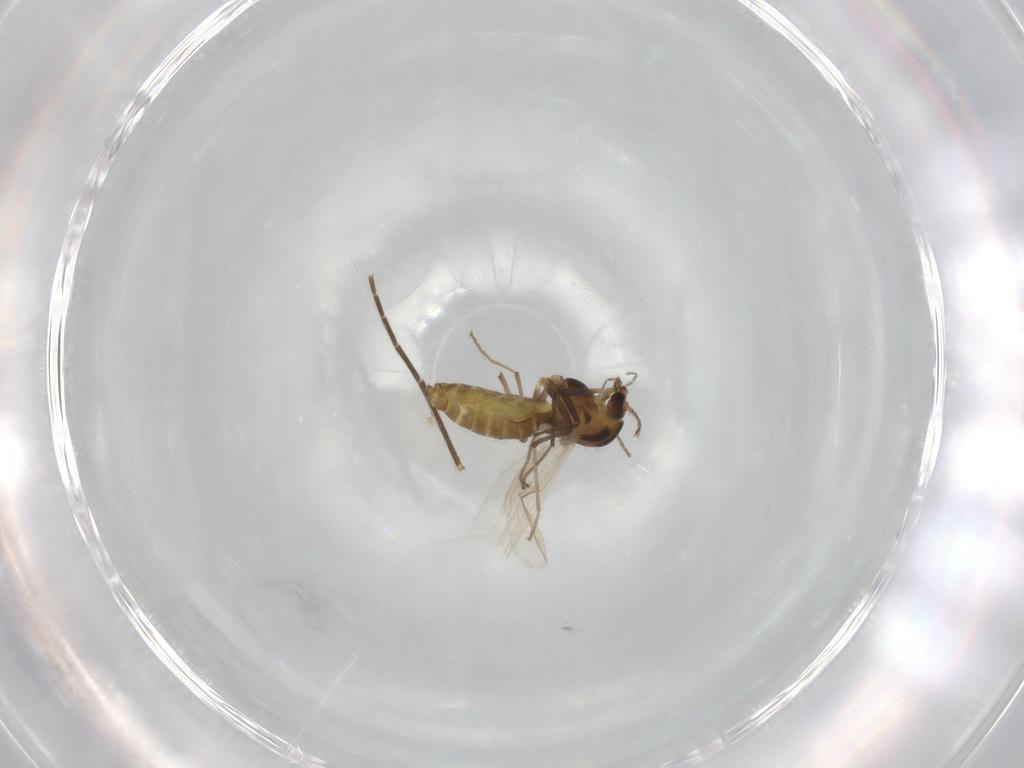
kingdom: Animalia
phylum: Arthropoda
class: Insecta
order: Diptera
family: Chironomidae
